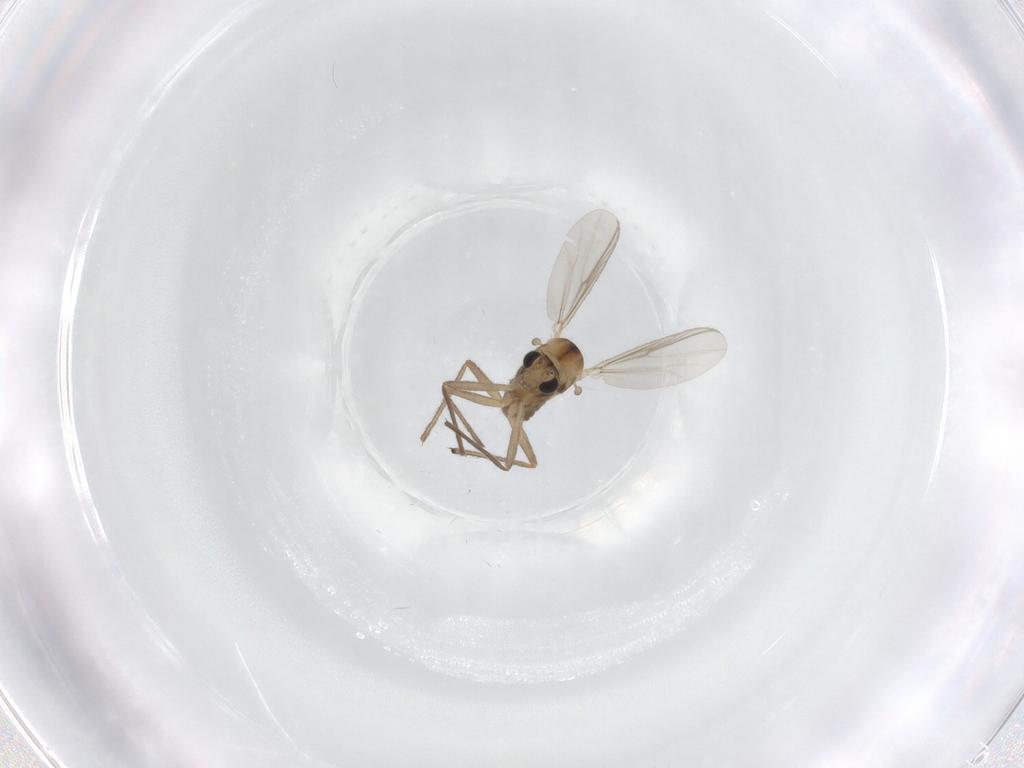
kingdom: Animalia
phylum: Arthropoda
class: Insecta
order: Diptera
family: Chironomidae
